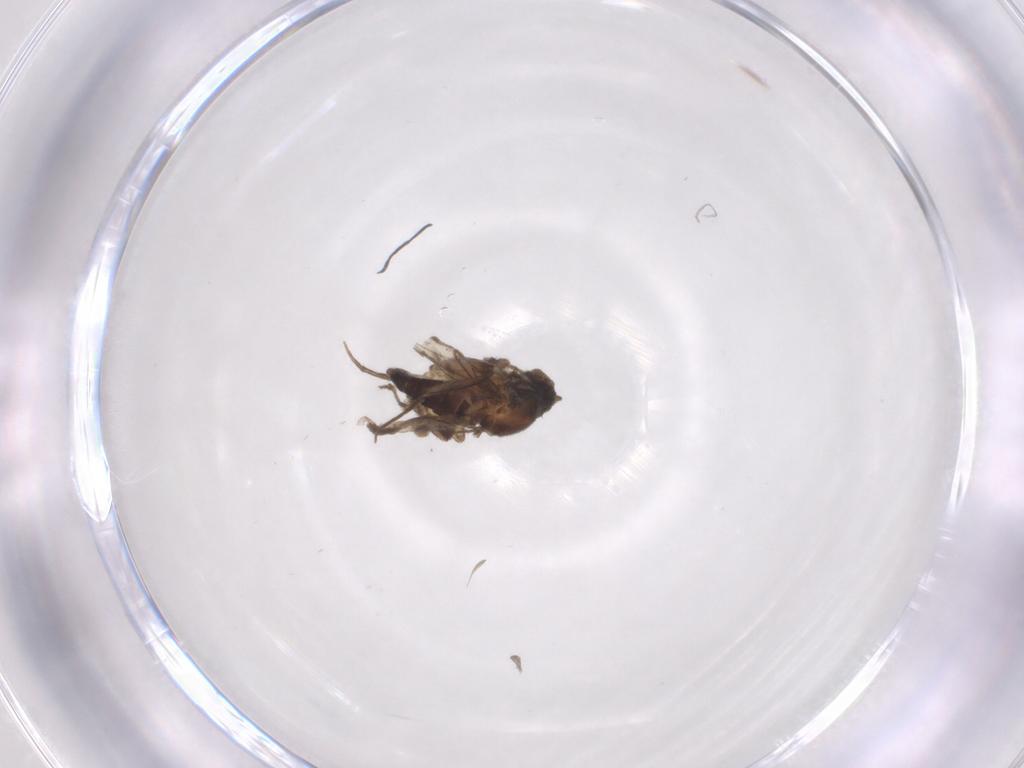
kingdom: Animalia
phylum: Arthropoda
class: Insecta
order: Diptera
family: Phoridae
